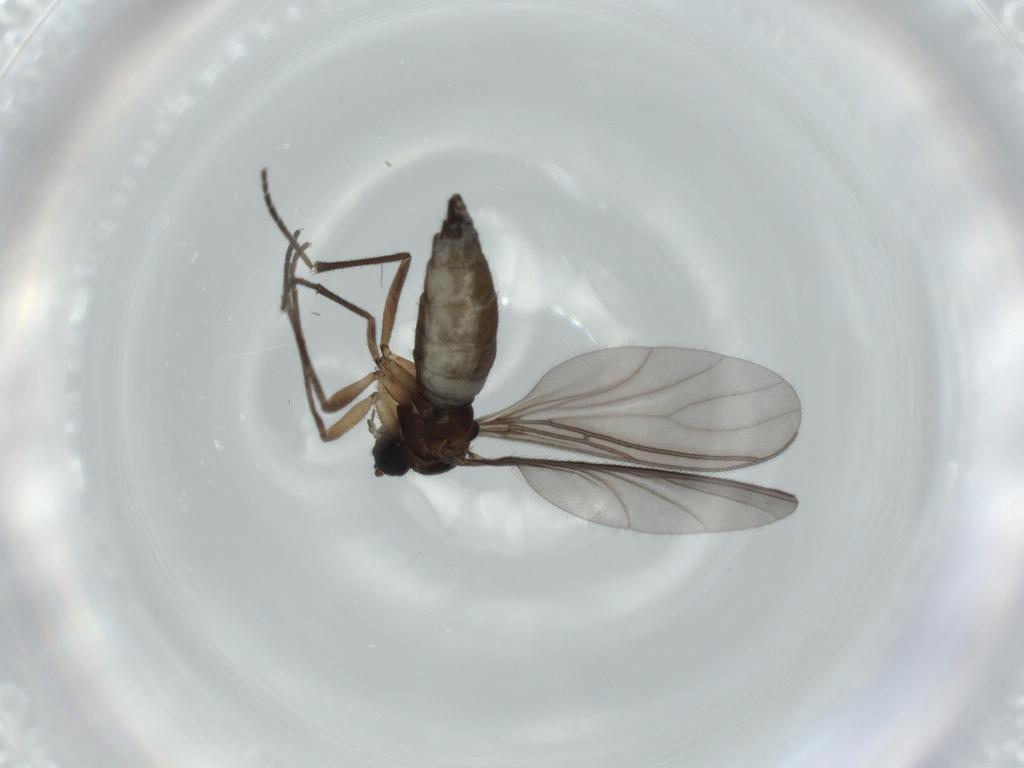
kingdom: Animalia
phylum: Arthropoda
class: Insecta
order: Diptera
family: Sciaridae
